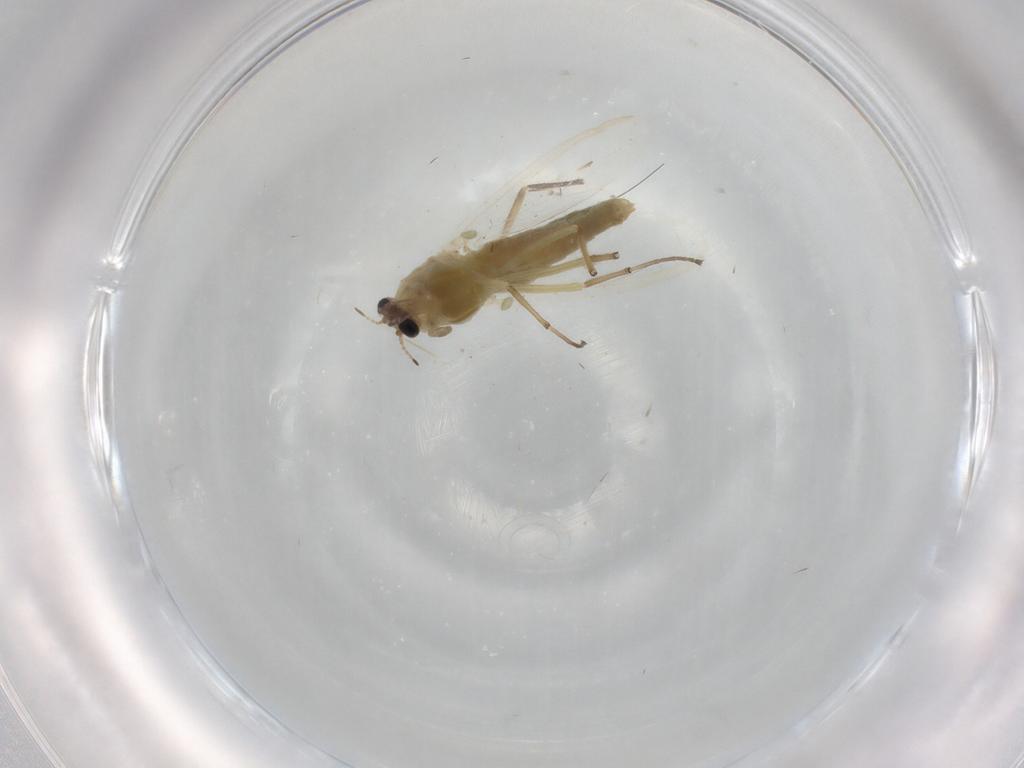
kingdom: Animalia
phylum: Arthropoda
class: Insecta
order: Diptera
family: Chironomidae
